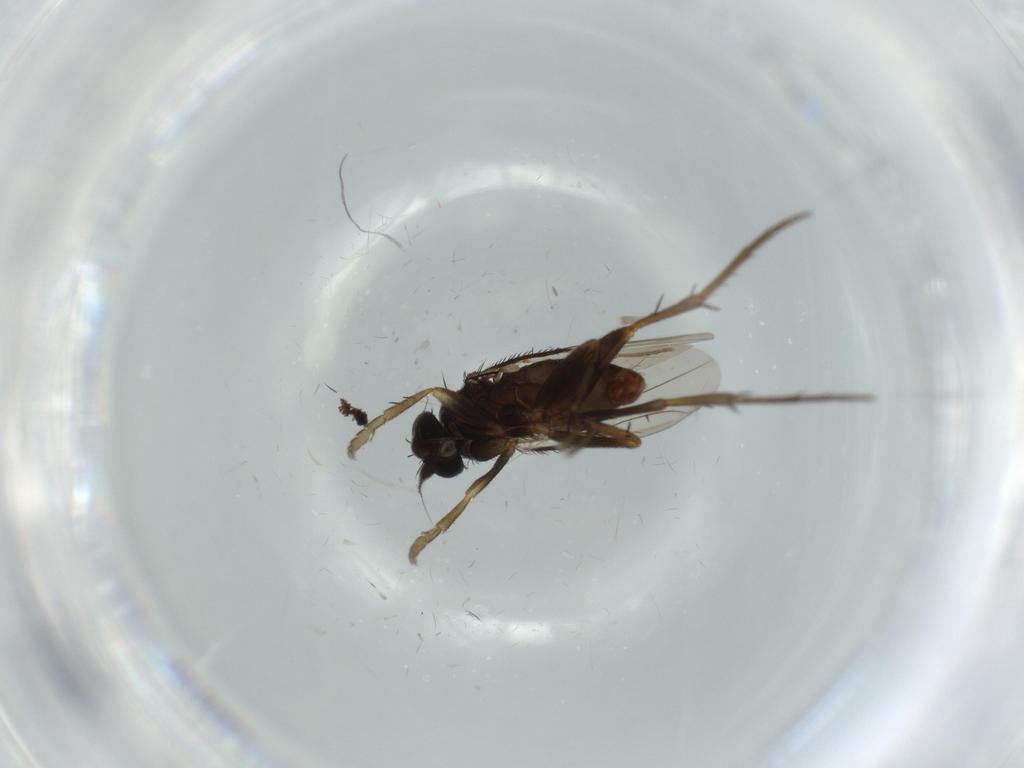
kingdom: Animalia
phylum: Arthropoda
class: Insecta
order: Diptera
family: Phoridae
